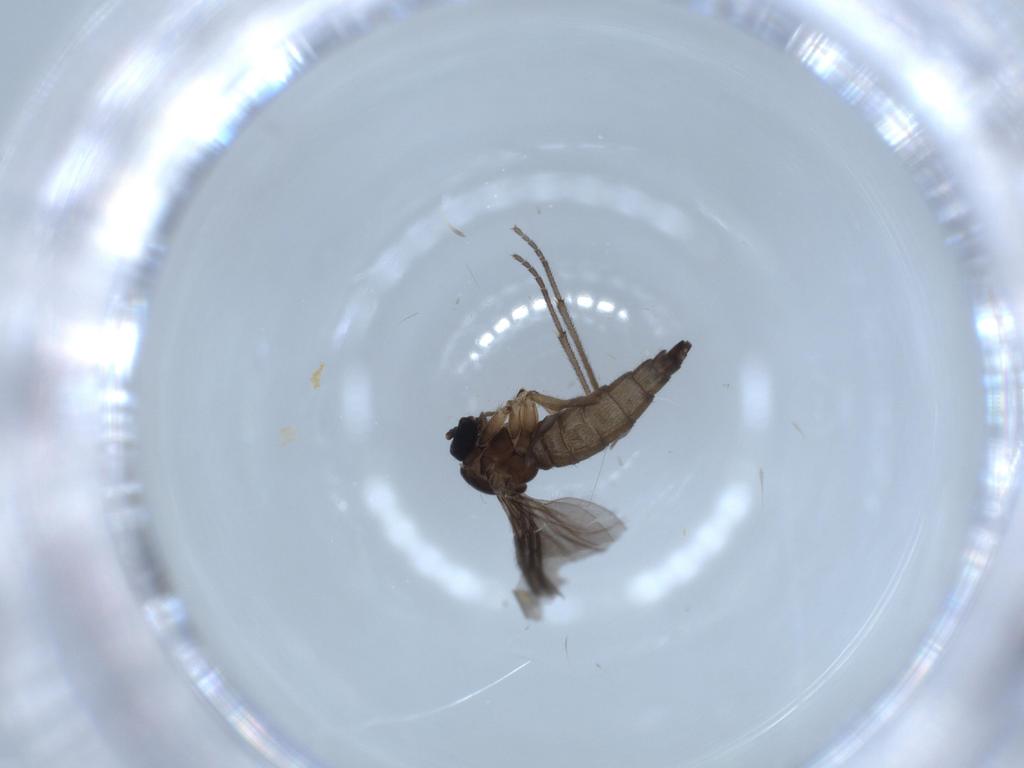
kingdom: Animalia
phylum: Arthropoda
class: Insecta
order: Diptera
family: Sciaridae
